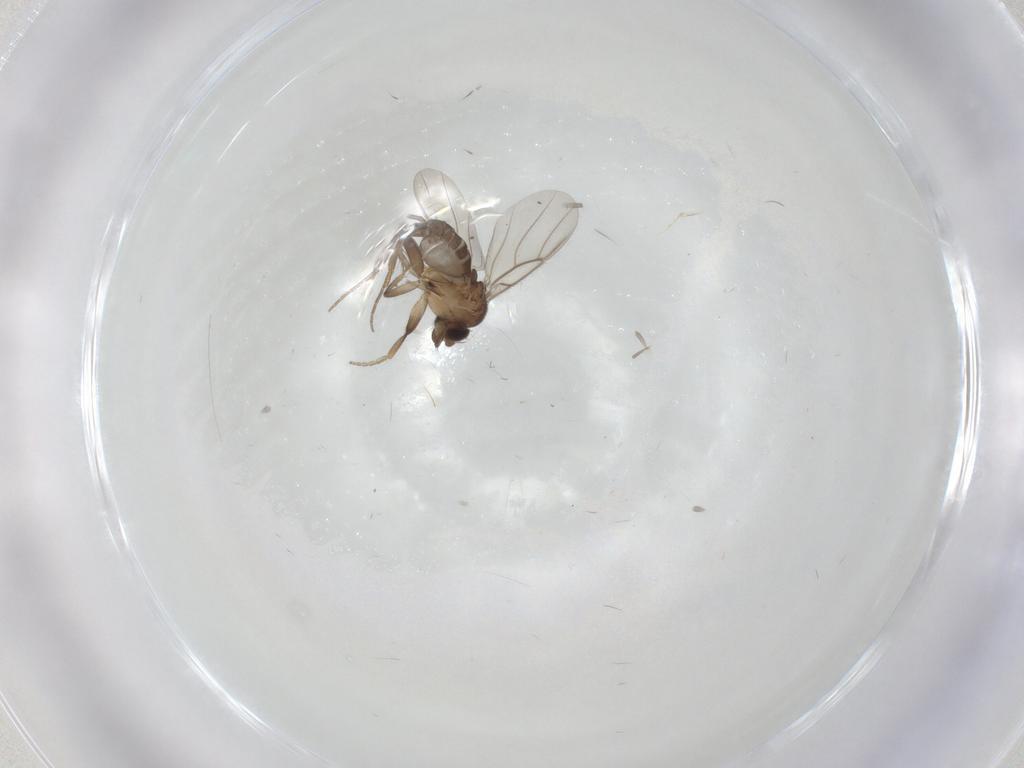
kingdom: Animalia
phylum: Arthropoda
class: Insecta
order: Diptera
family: Phoridae
